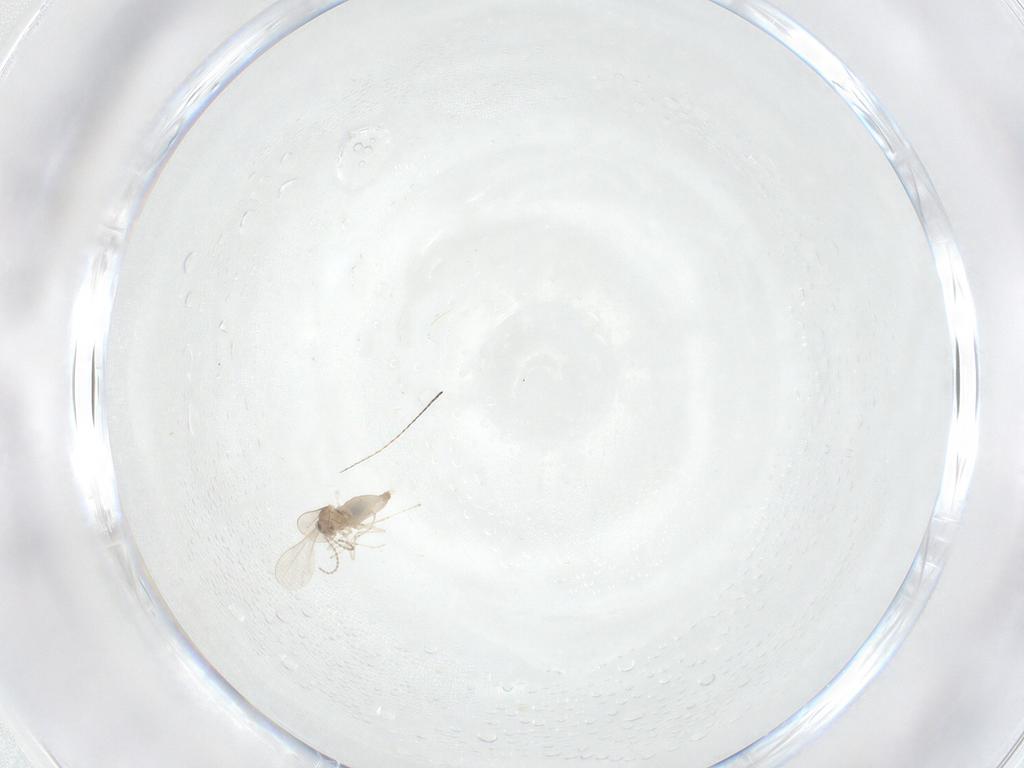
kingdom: Animalia
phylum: Arthropoda
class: Insecta
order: Diptera
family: Cecidomyiidae
